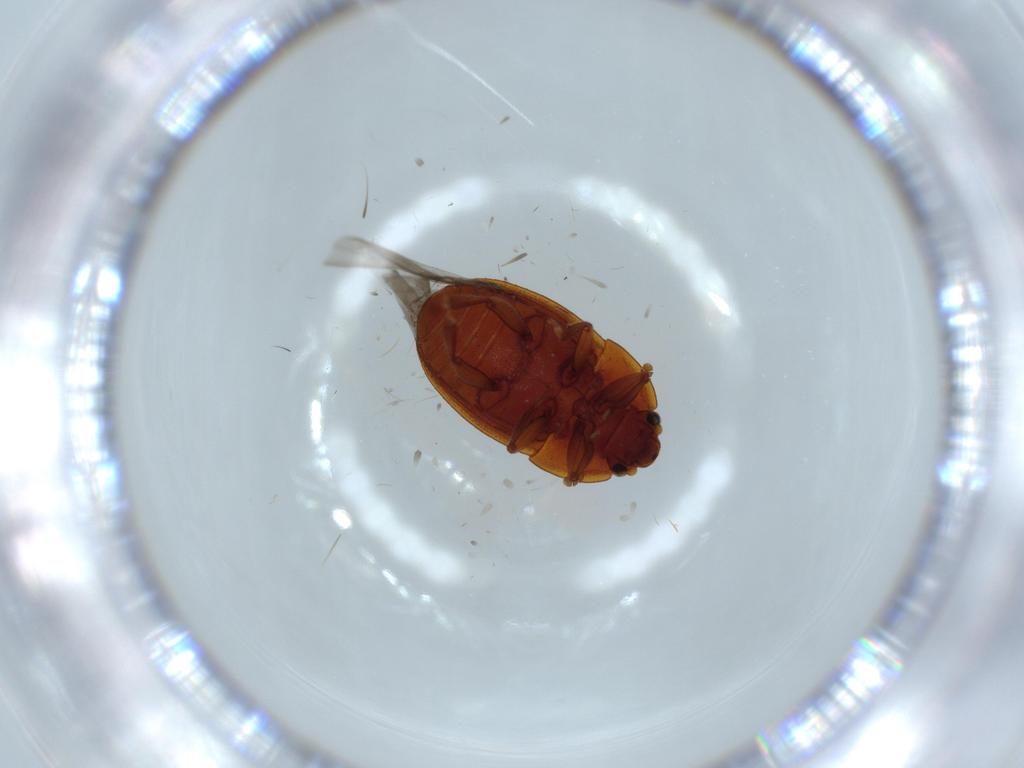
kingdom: Animalia
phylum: Arthropoda
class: Insecta
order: Coleoptera
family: Nitidulidae
